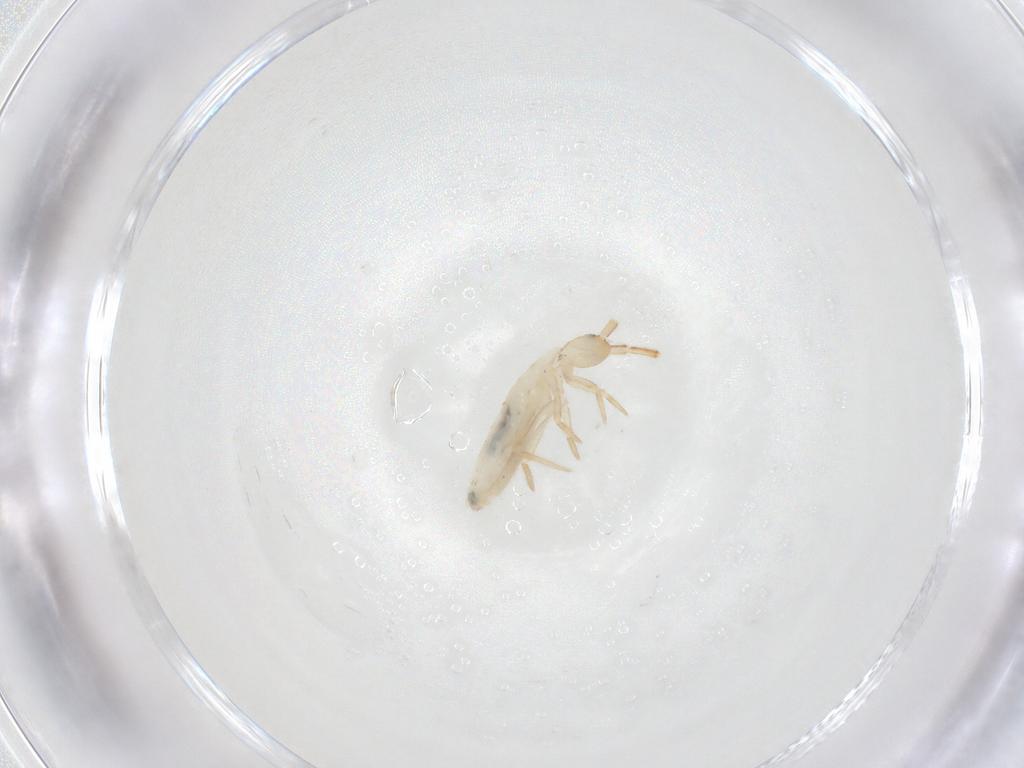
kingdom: Animalia
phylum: Arthropoda
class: Collembola
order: Entomobryomorpha
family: Entomobryidae
